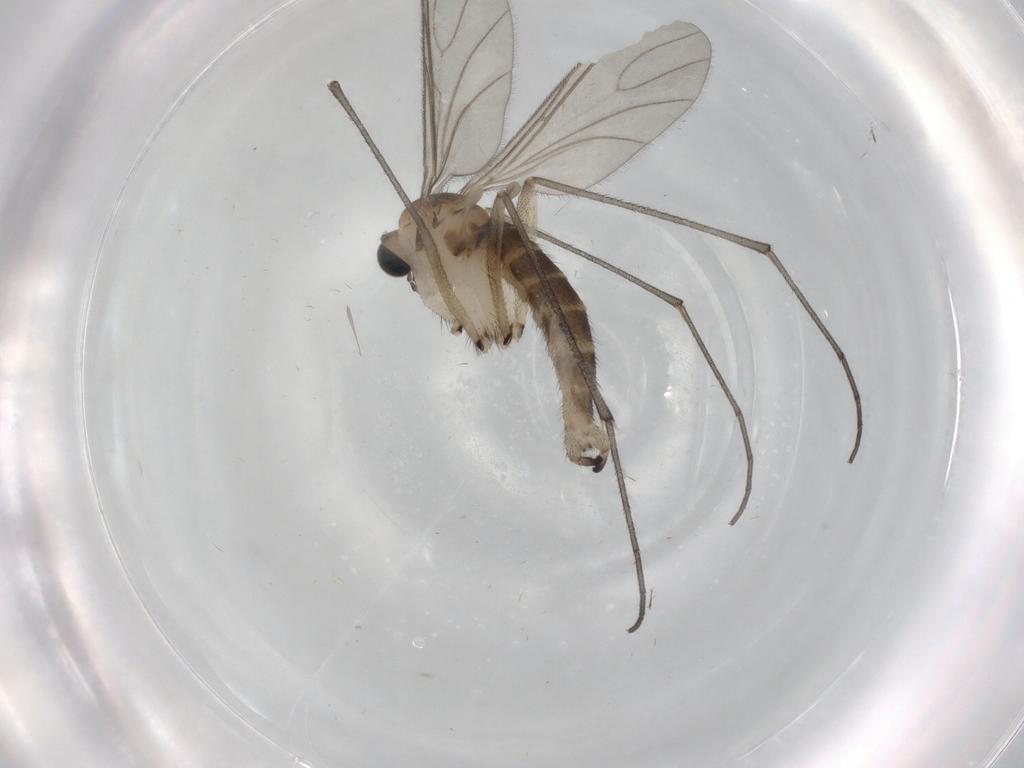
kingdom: Animalia
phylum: Arthropoda
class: Insecta
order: Diptera
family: Sciaridae
